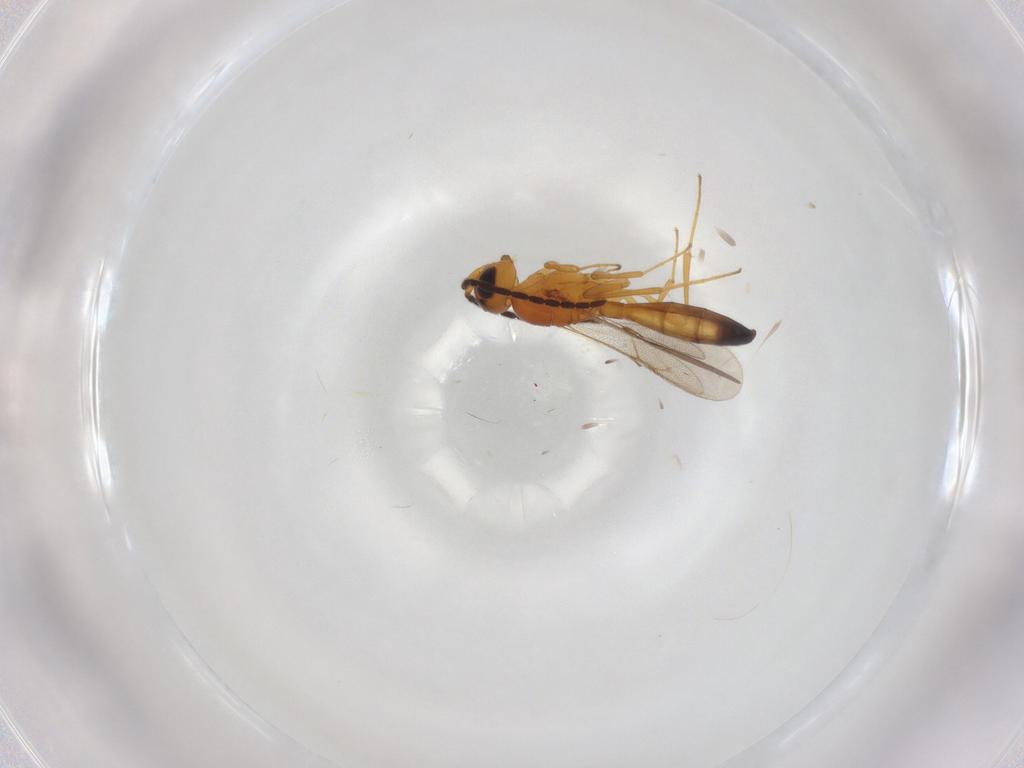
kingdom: Animalia
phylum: Arthropoda
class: Insecta
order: Hymenoptera
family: Scelionidae
